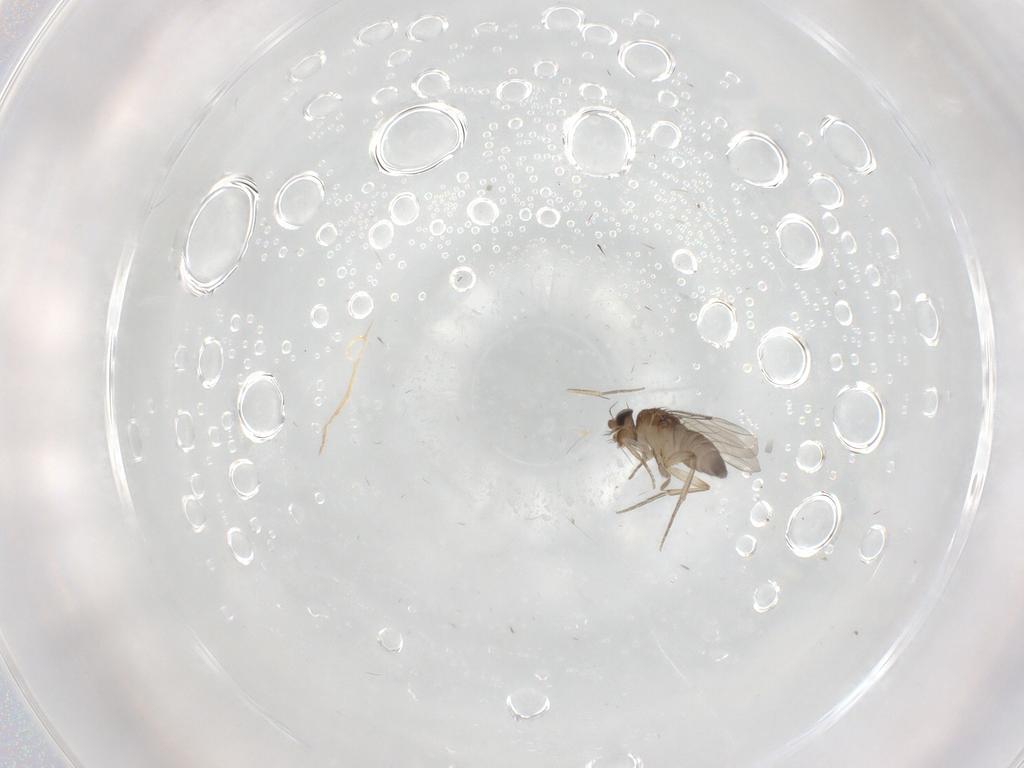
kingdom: Animalia
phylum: Arthropoda
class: Insecta
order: Diptera
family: Phoridae
